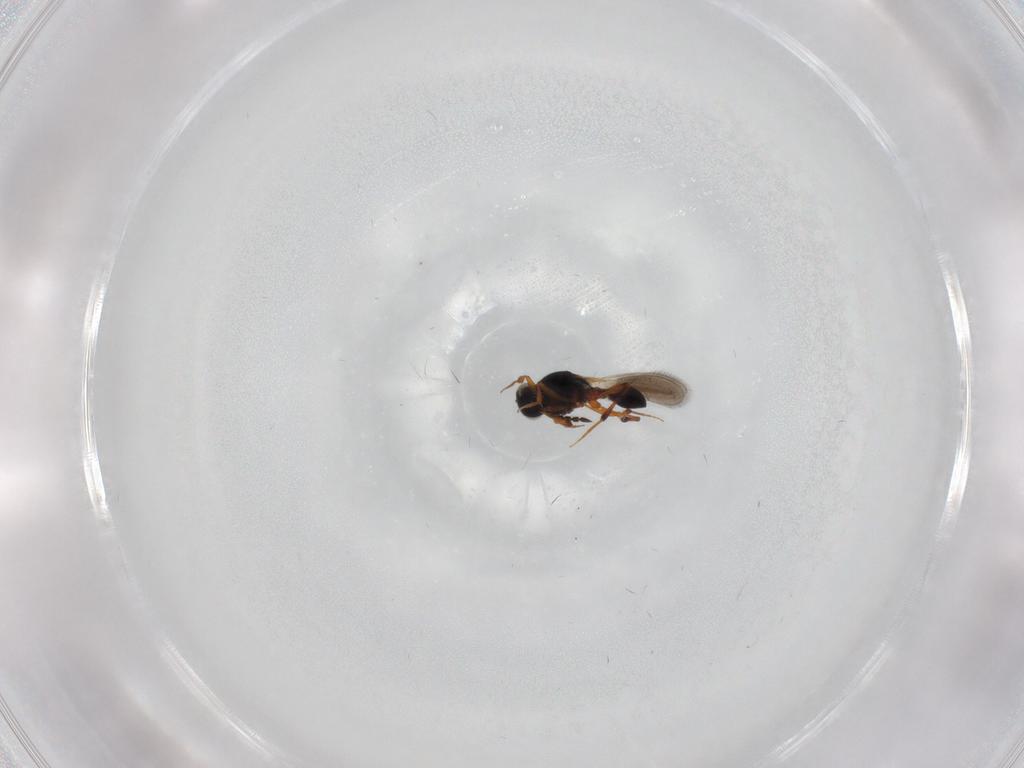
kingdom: Animalia
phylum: Arthropoda
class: Insecta
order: Hymenoptera
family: Platygastridae
